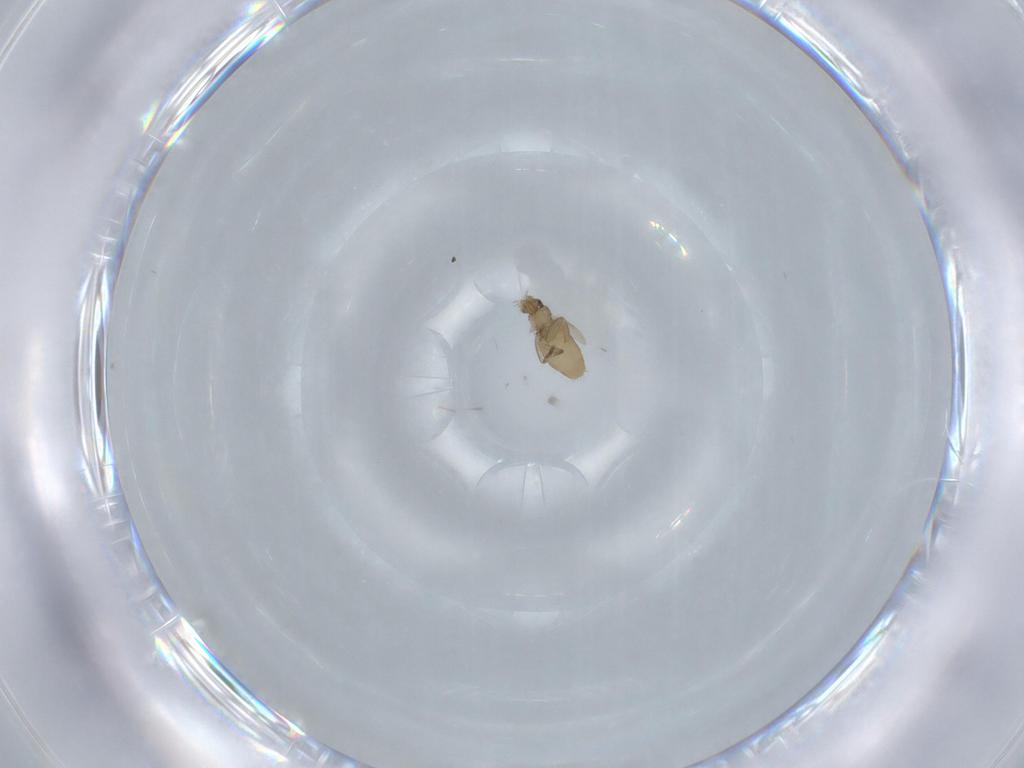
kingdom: Animalia
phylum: Arthropoda
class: Insecta
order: Diptera
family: Phoridae
